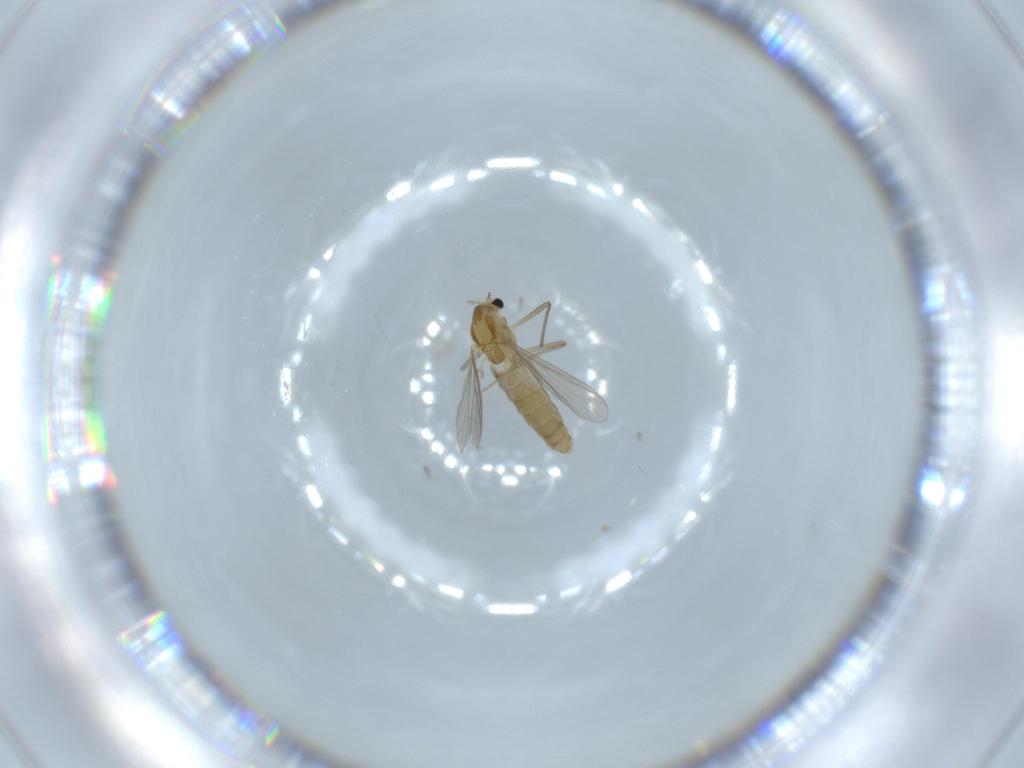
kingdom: Animalia
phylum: Arthropoda
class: Insecta
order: Diptera
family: Chironomidae
